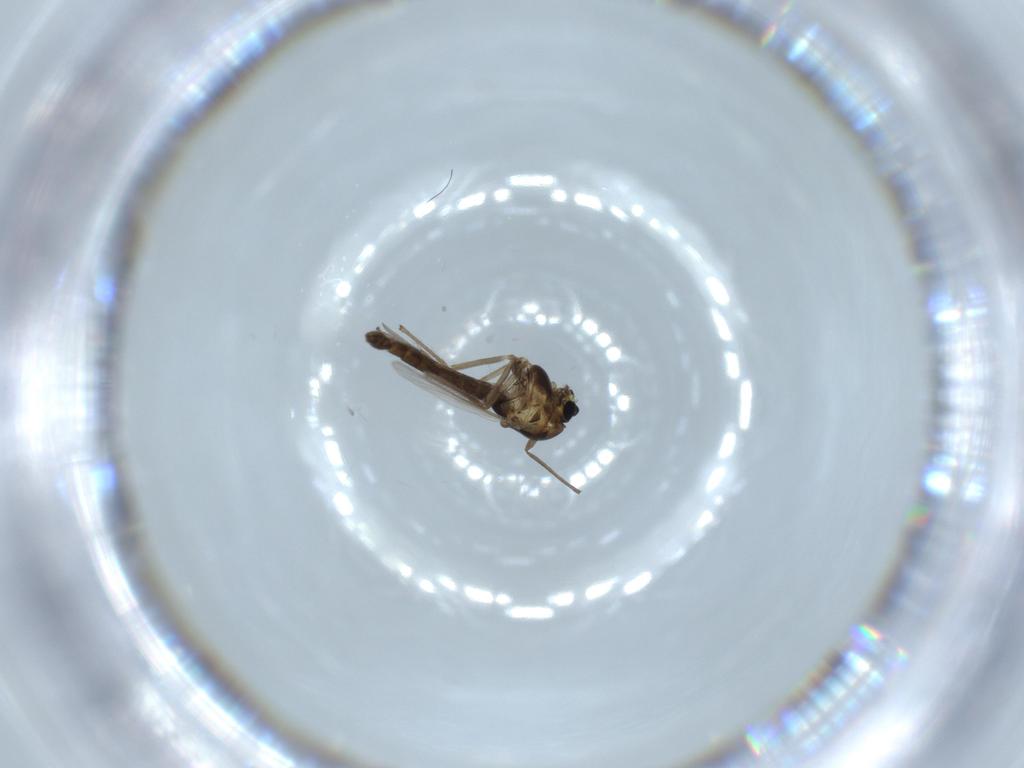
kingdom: Animalia
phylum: Arthropoda
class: Insecta
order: Diptera
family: Chironomidae
